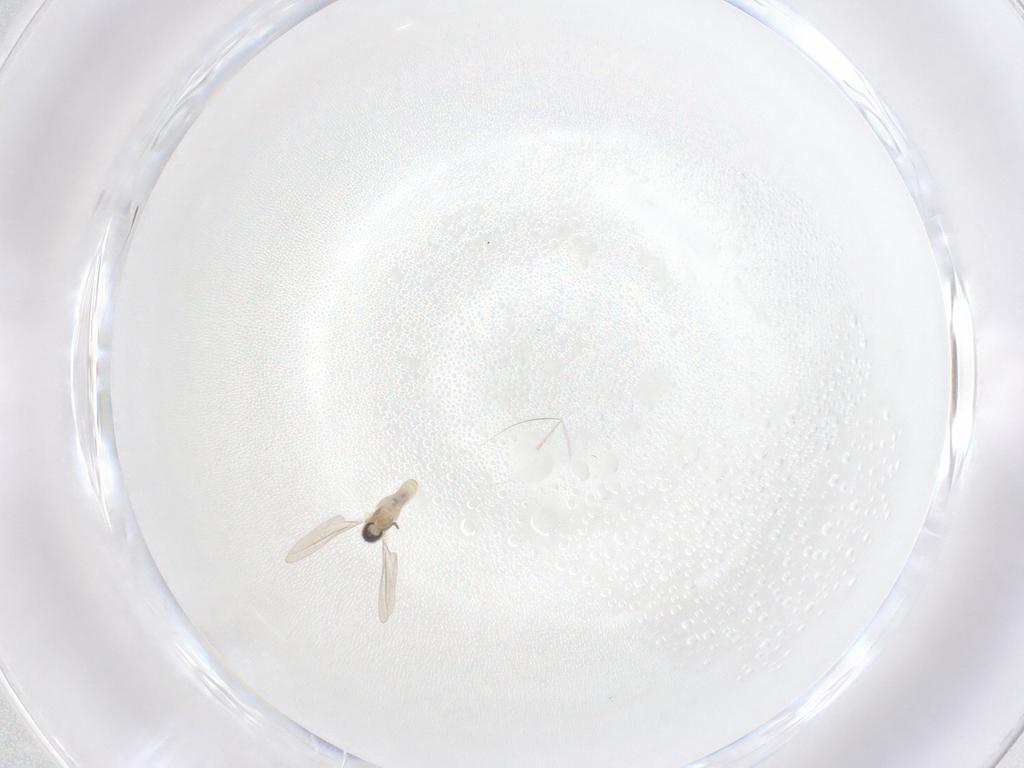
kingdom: Animalia
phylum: Arthropoda
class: Insecta
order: Diptera
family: Cecidomyiidae
